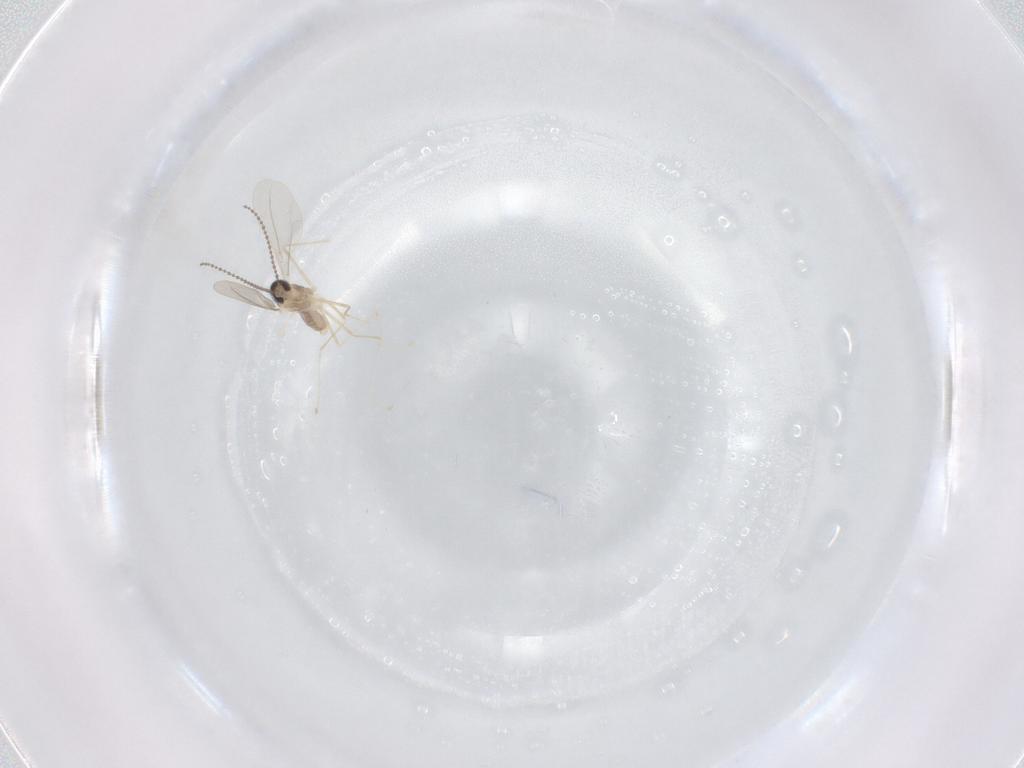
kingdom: Animalia
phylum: Arthropoda
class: Insecta
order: Diptera
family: Cecidomyiidae
